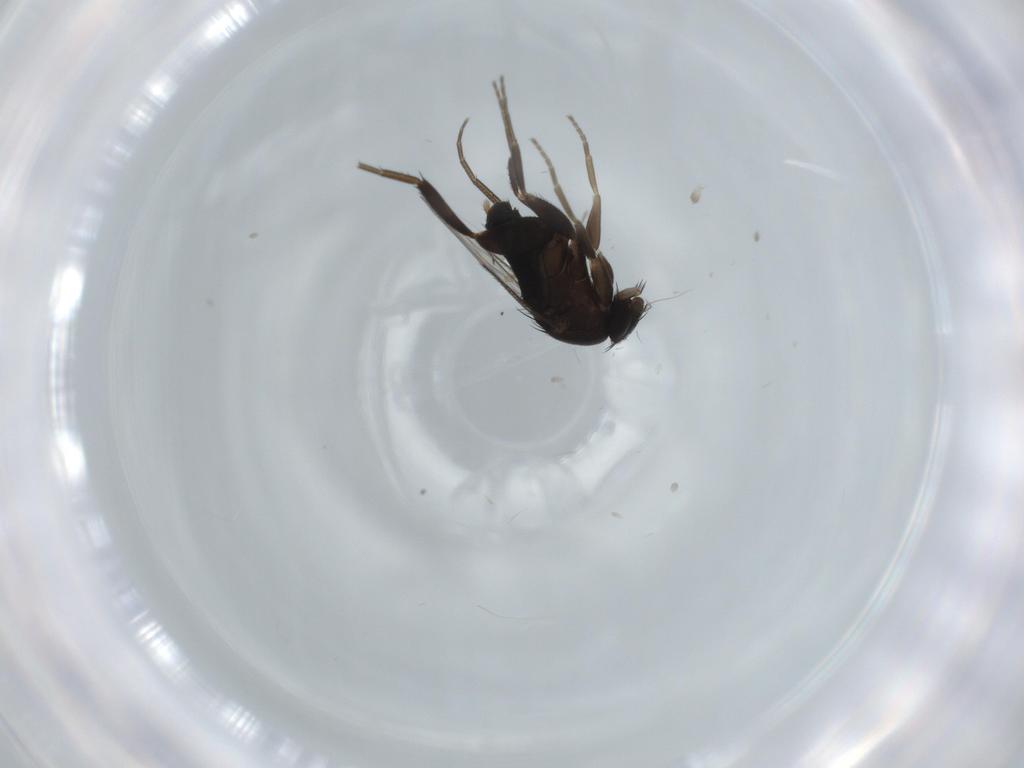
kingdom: Animalia
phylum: Arthropoda
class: Insecta
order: Diptera
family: Phoridae
